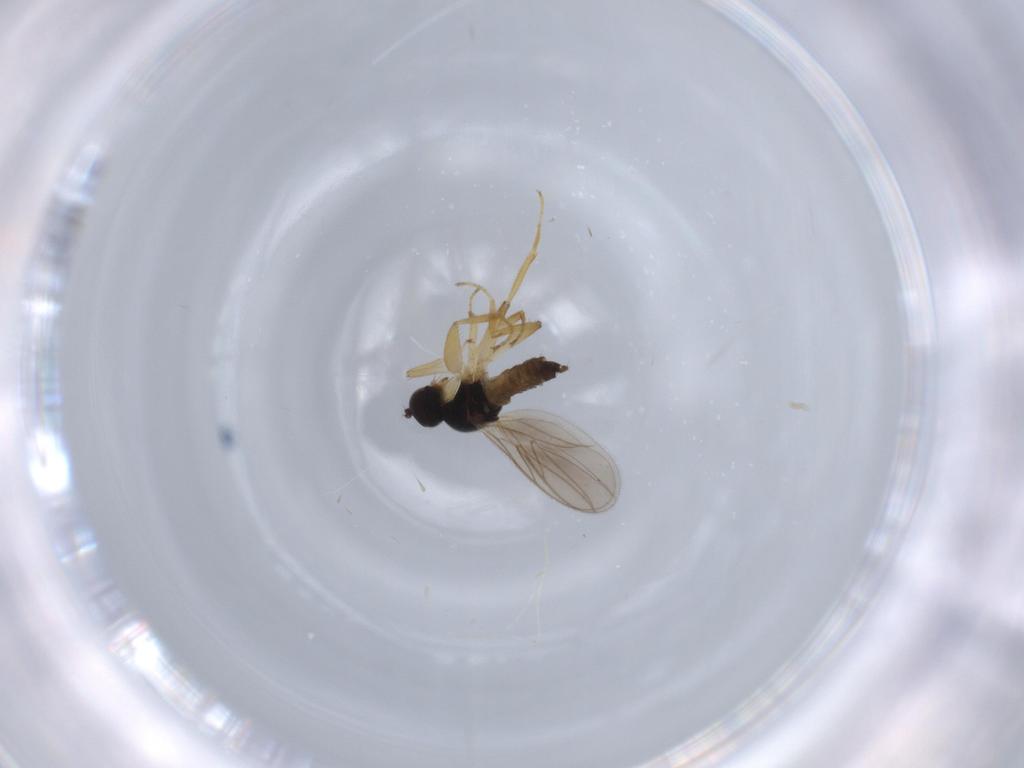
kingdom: Animalia
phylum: Arthropoda
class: Insecta
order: Diptera
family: Hybotidae
